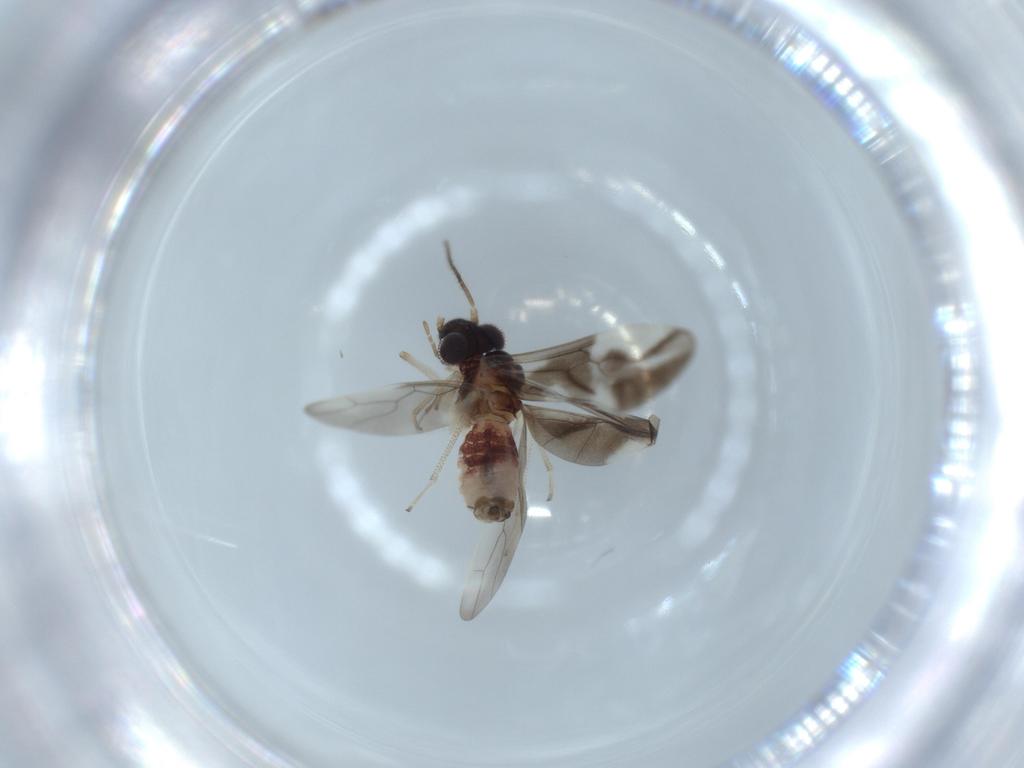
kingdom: Animalia
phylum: Arthropoda
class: Insecta
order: Psocodea
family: Caeciliusidae
